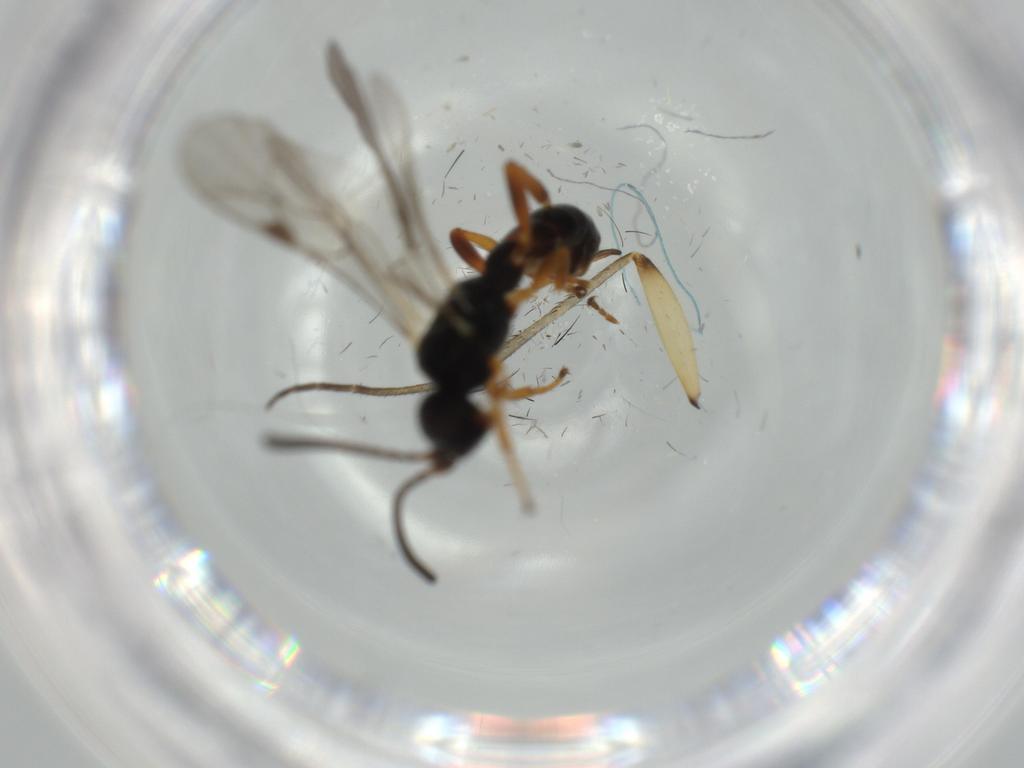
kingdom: Animalia
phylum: Arthropoda
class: Insecta
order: Hymenoptera
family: Ichneumonidae
